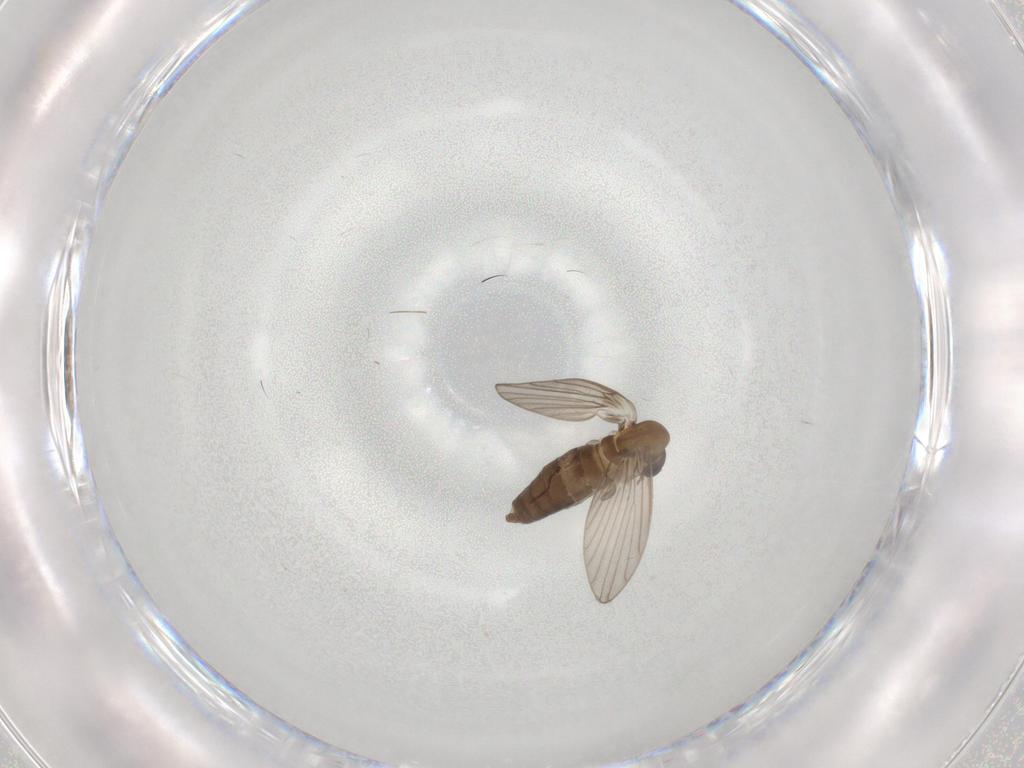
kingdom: Animalia
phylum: Arthropoda
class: Insecta
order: Diptera
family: Psychodidae
